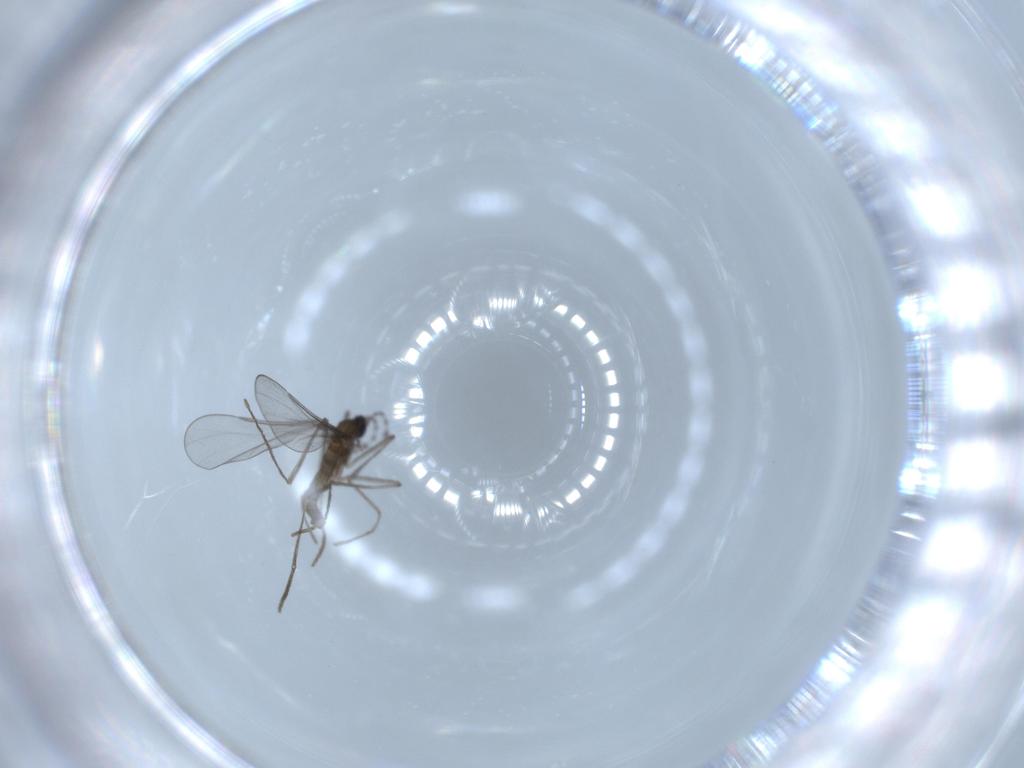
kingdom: Animalia
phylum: Arthropoda
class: Insecta
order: Diptera
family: Cecidomyiidae
